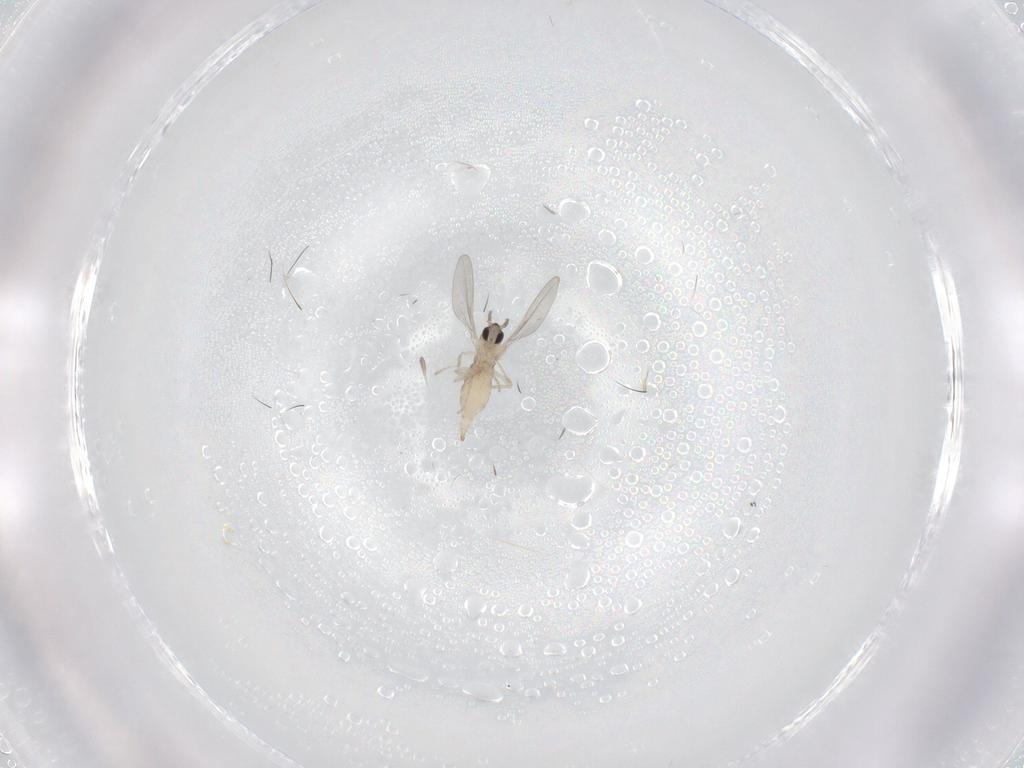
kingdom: Animalia
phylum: Arthropoda
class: Insecta
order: Diptera
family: Cecidomyiidae
